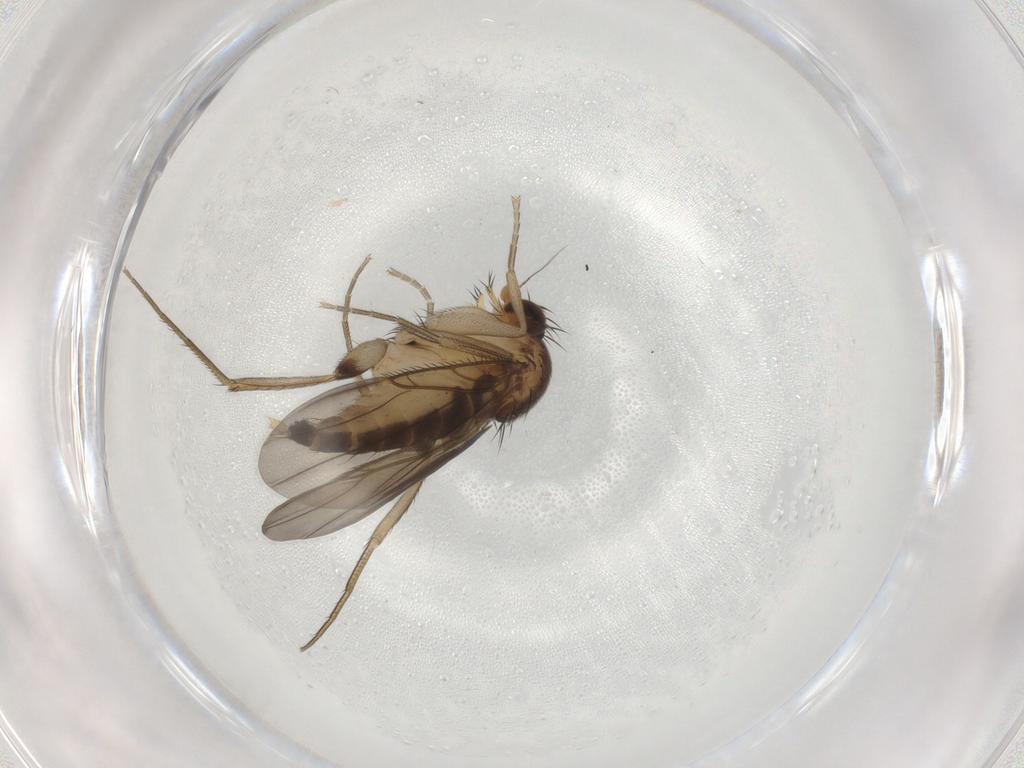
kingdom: Animalia
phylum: Arthropoda
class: Insecta
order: Diptera
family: Phoridae
